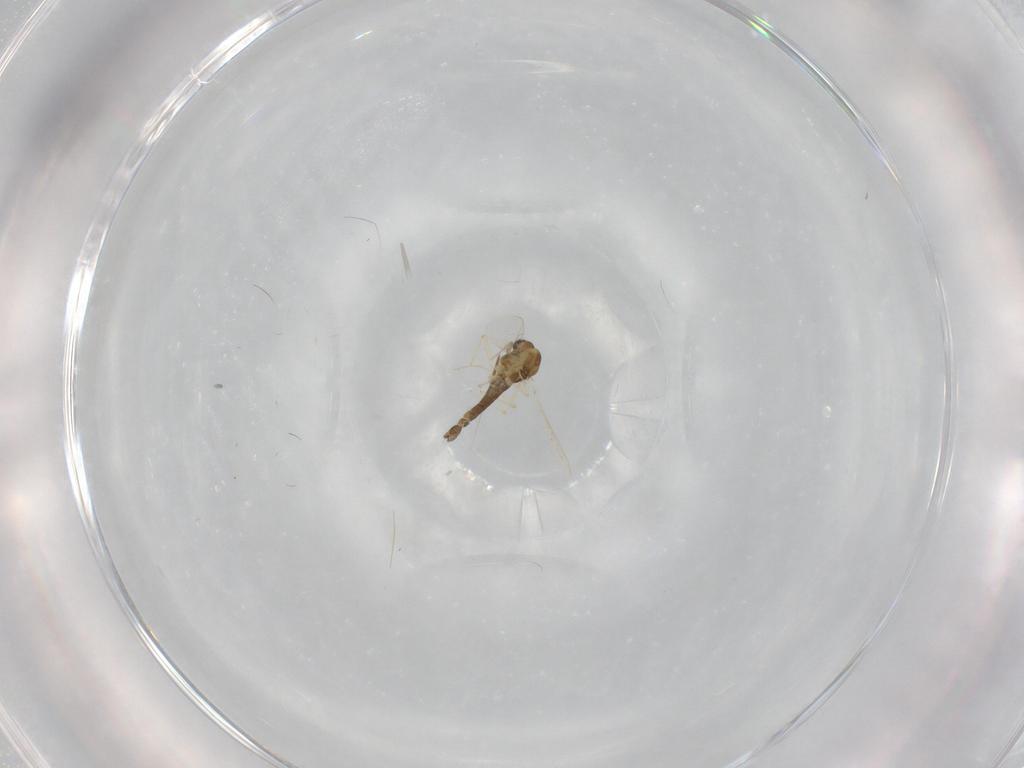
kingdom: Animalia
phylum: Arthropoda
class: Insecta
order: Diptera
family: Chironomidae
